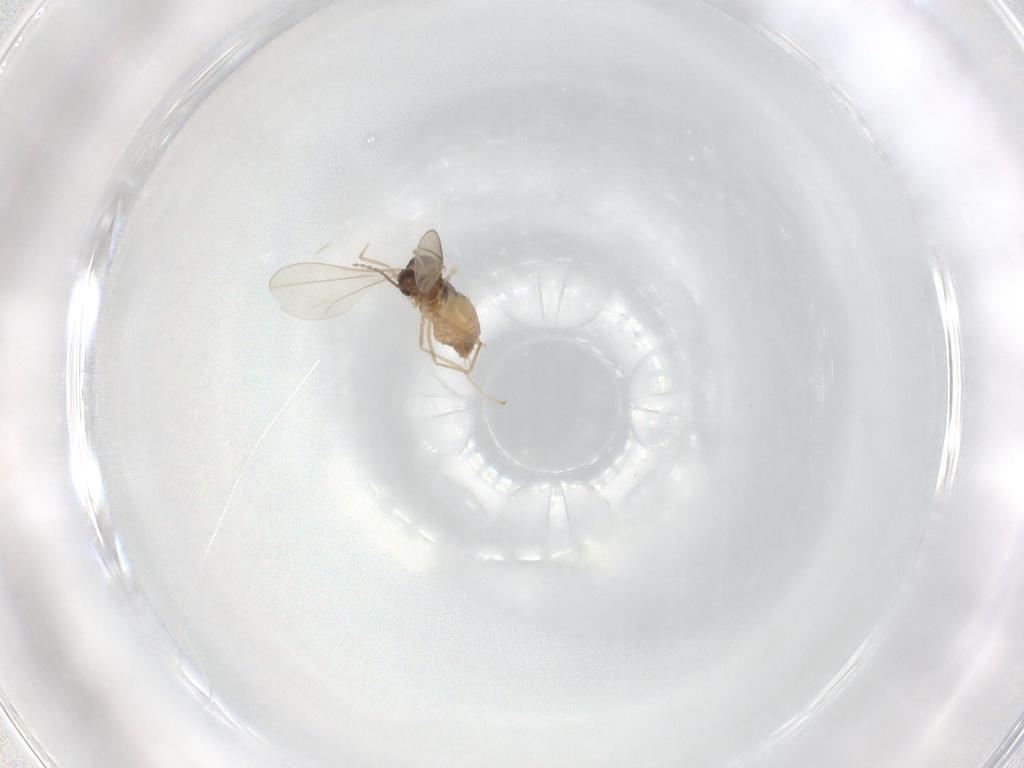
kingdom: Animalia
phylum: Arthropoda
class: Insecta
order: Diptera
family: Cecidomyiidae
